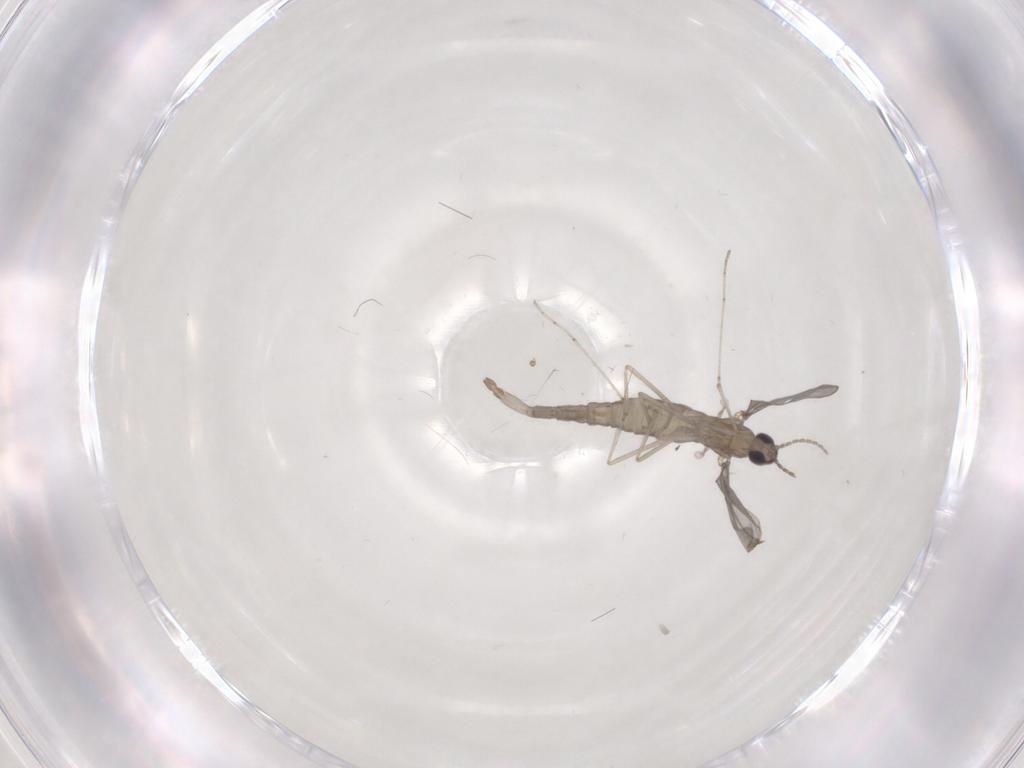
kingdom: Animalia
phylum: Arthropoda
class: Insecta
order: Diptera
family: Cecidomyiidae
